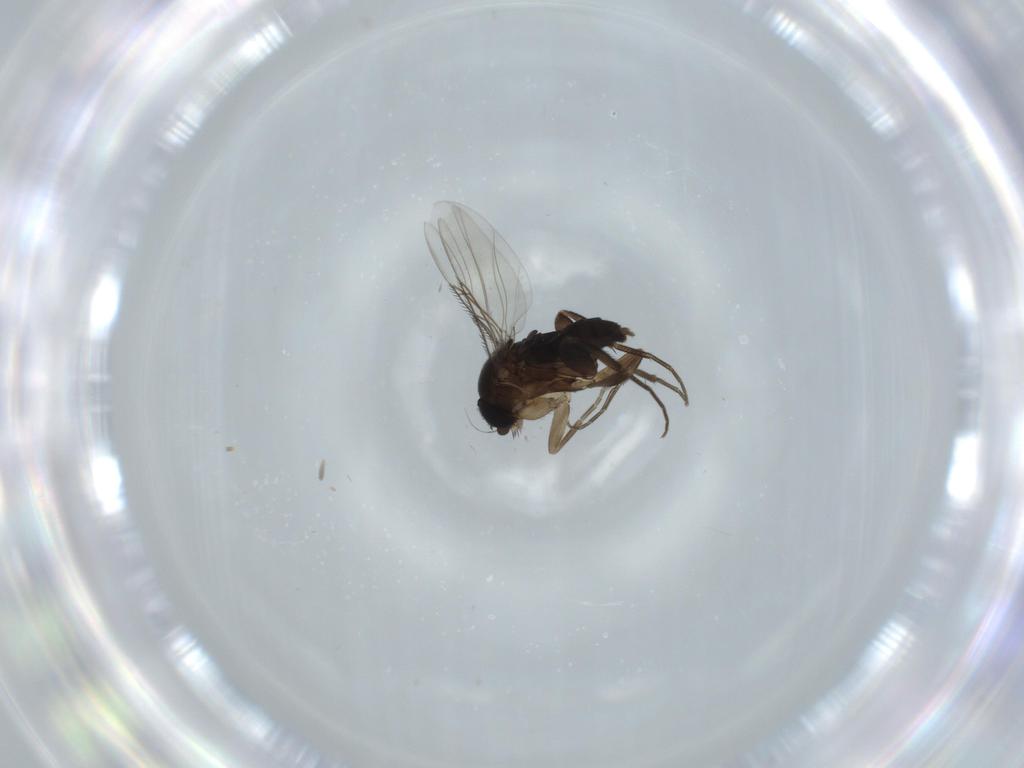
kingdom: Animalia
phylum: Arthropoda
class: Insecta
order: Diptera
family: Phoridae
